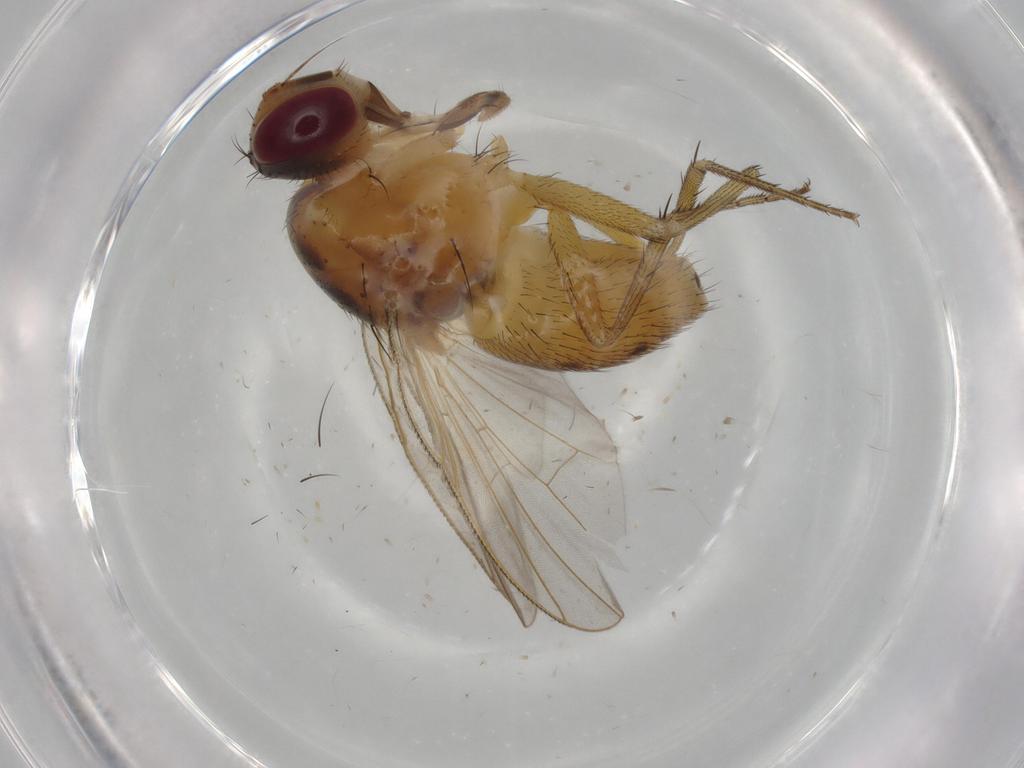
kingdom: Animalia
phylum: Arthropoda
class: Insecta
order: Diptera
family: Muscidae
